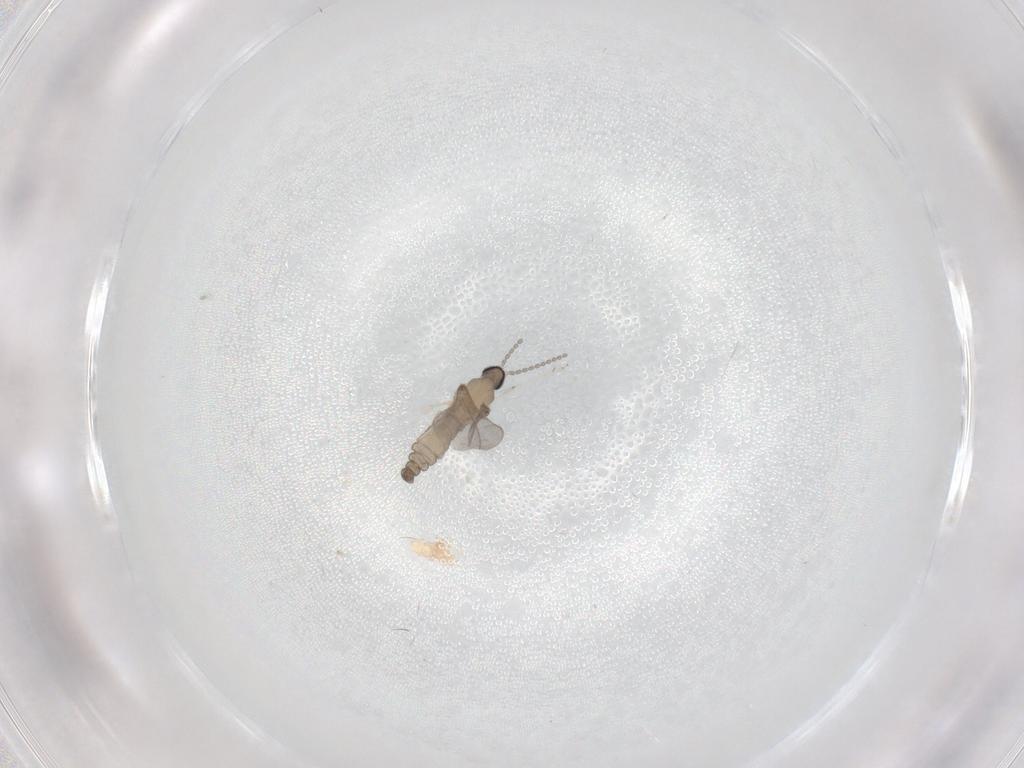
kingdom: Animalia
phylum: Arthropoda
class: Insecta
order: Diptera
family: Cecidomyiidae
